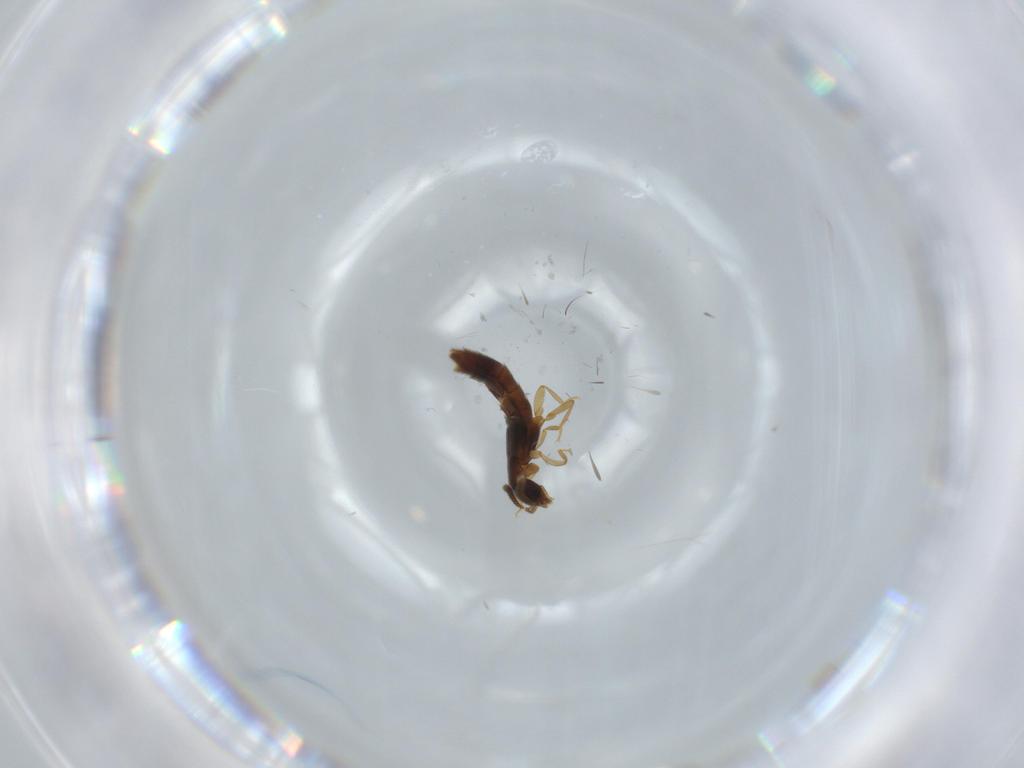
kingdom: Animalia
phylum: Arthropoda
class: Insecta
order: Coleoptera
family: Staphylinidae
